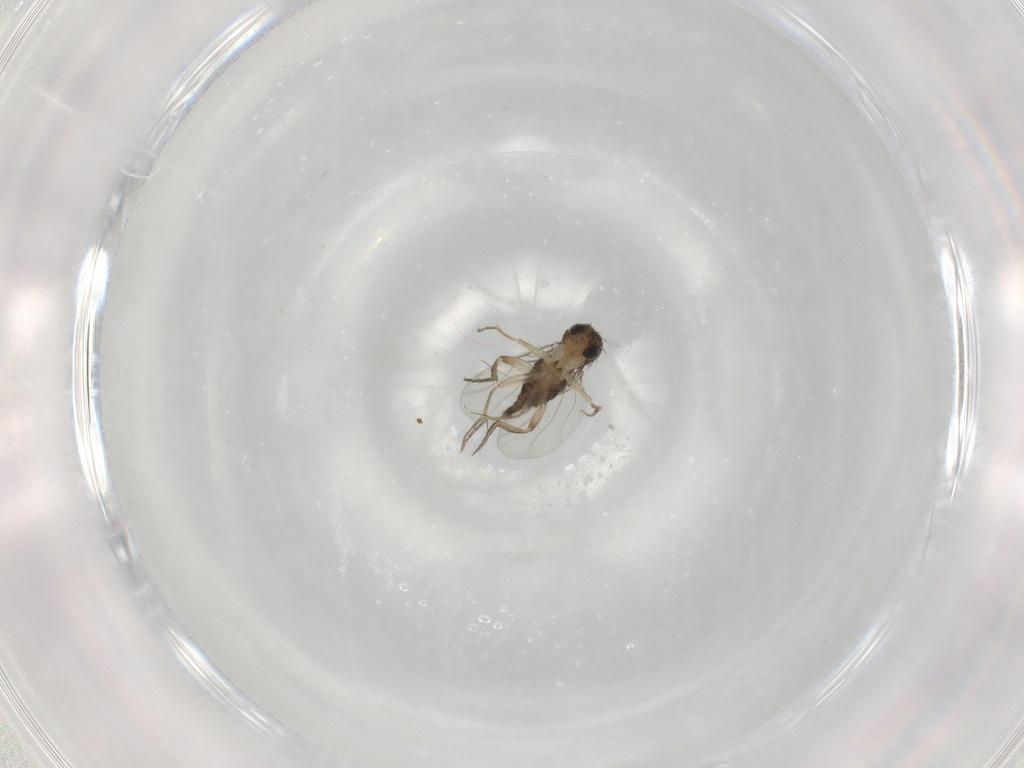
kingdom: Animalia
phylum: Arthropoda
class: Insecta
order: Diptera
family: Phoridae
